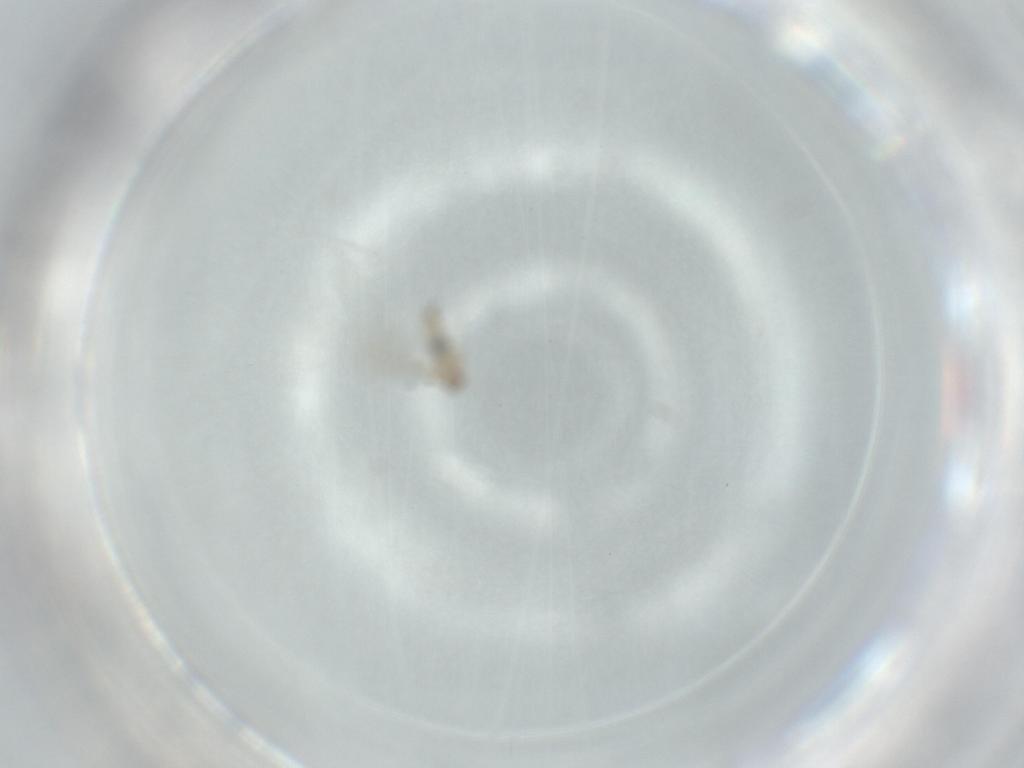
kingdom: Animalia
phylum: Arthropoda
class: Insecta
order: Diptera
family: Cecidomyiidae
